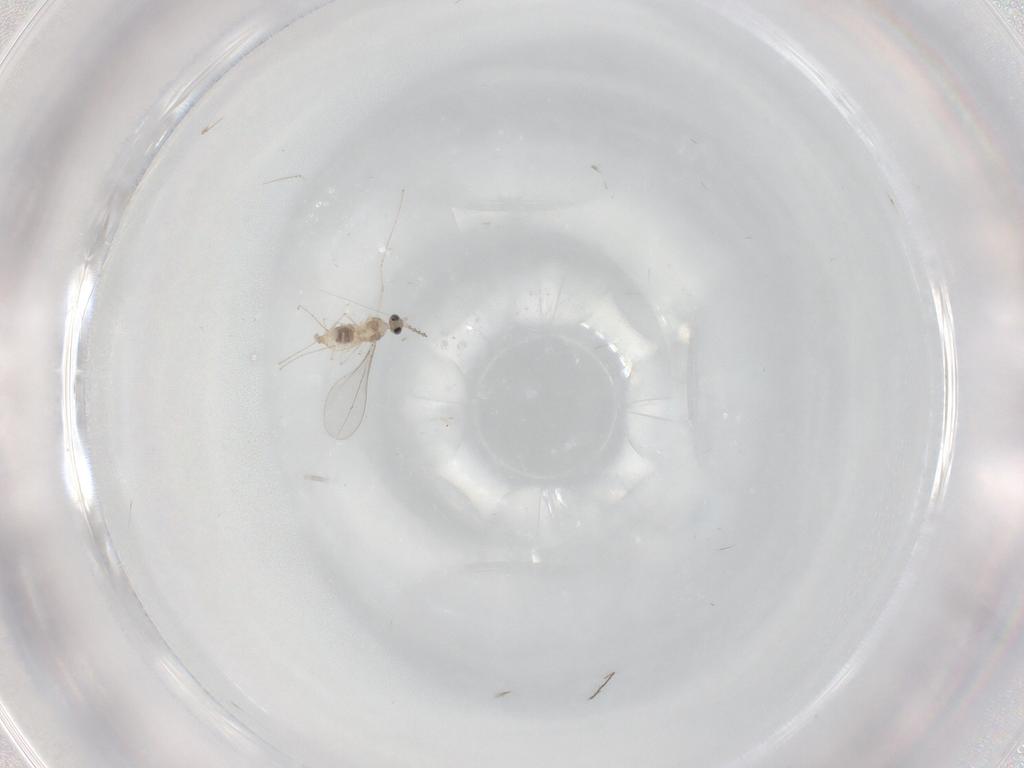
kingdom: Animalia
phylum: Arthropoda
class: Insecta
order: Diptera
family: Cecidomyiidae
